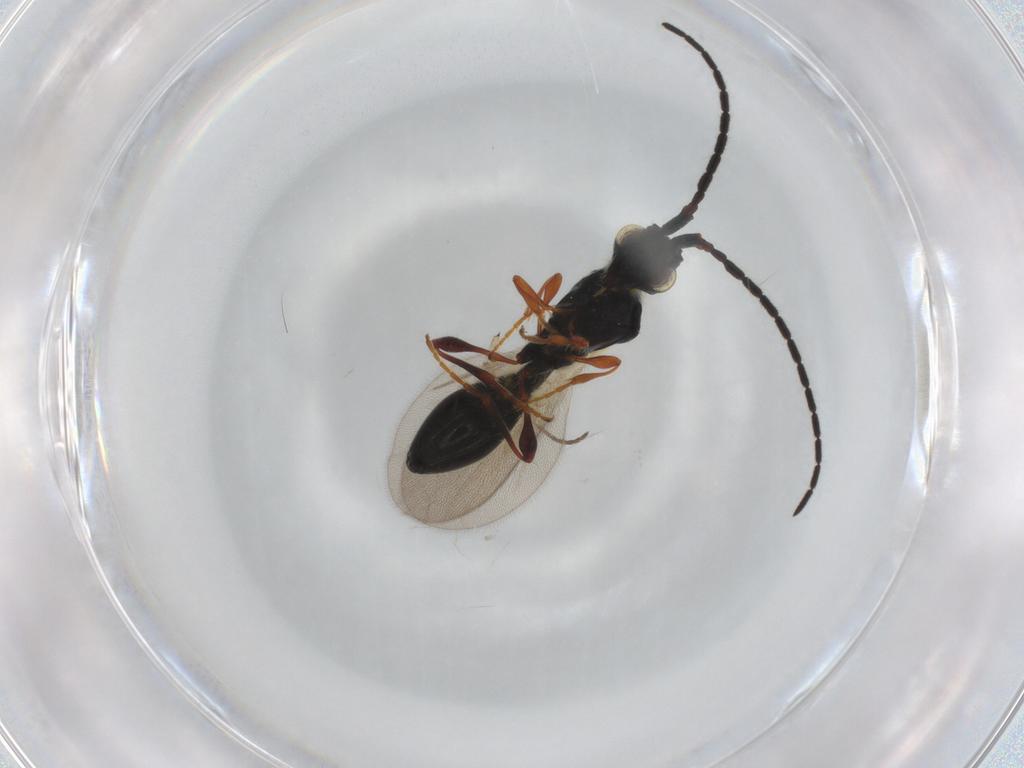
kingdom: Animalia
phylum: Arthropoda
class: Insecta
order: Hymenoptera
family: Diapriidae
